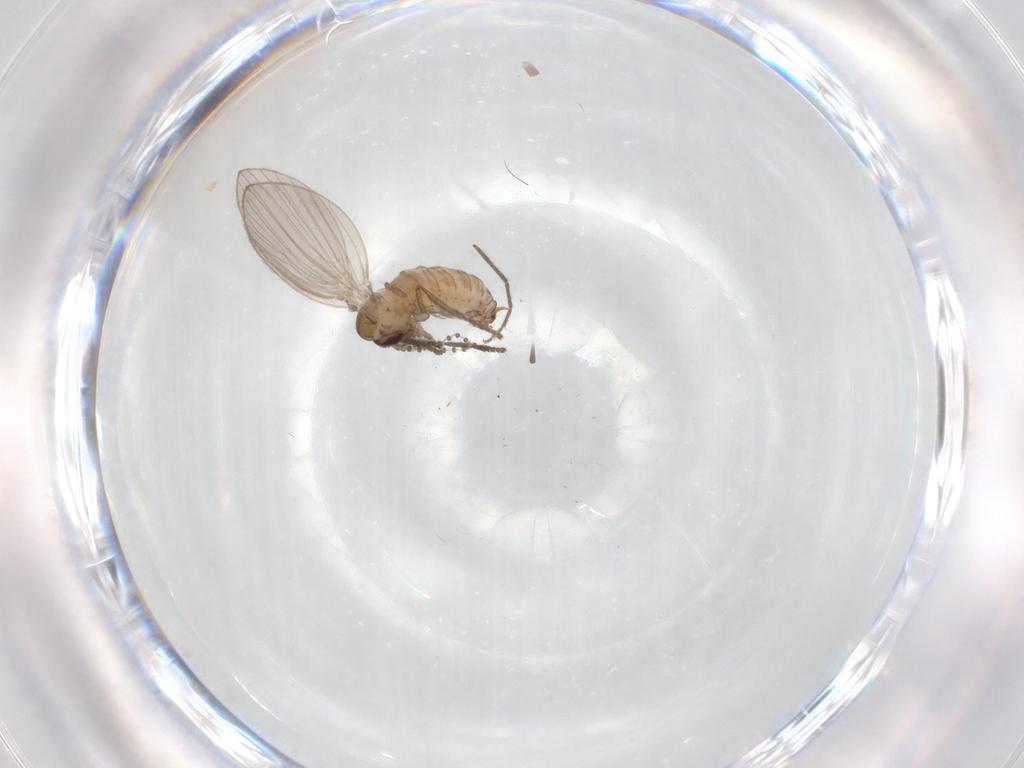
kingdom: Animalia
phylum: Arthropoda
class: Insecta
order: Diptera
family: Psychodidae
